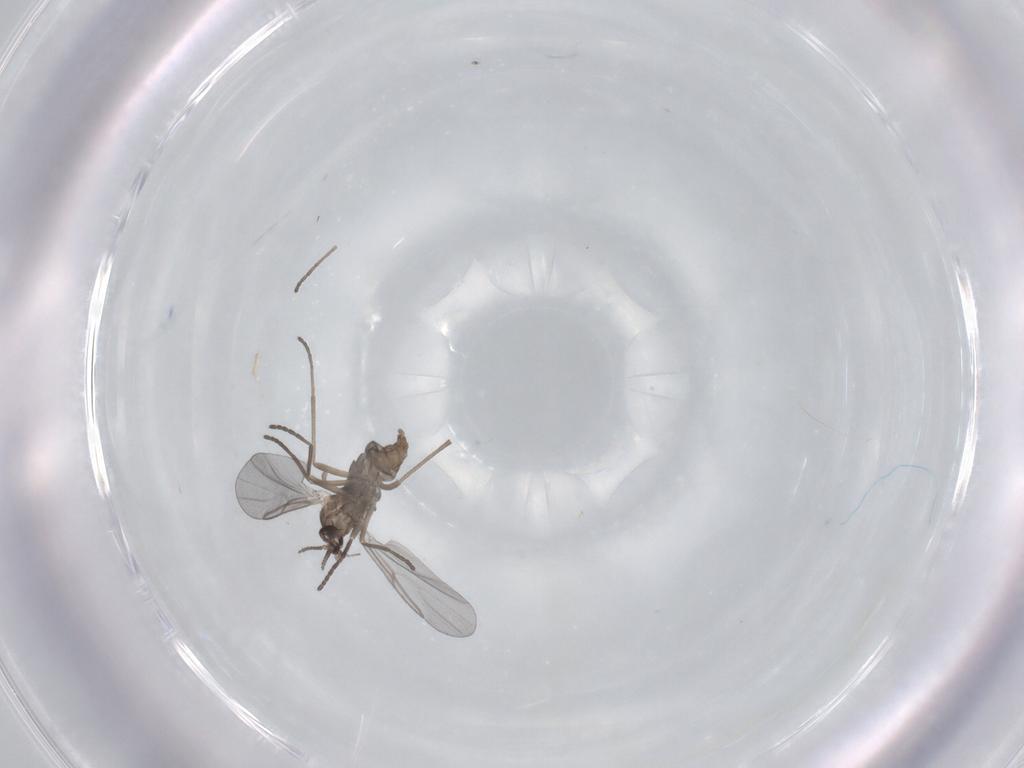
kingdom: Animalia
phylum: Arthropoda
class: Insecta
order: Diptera
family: Cecidomyiidae
